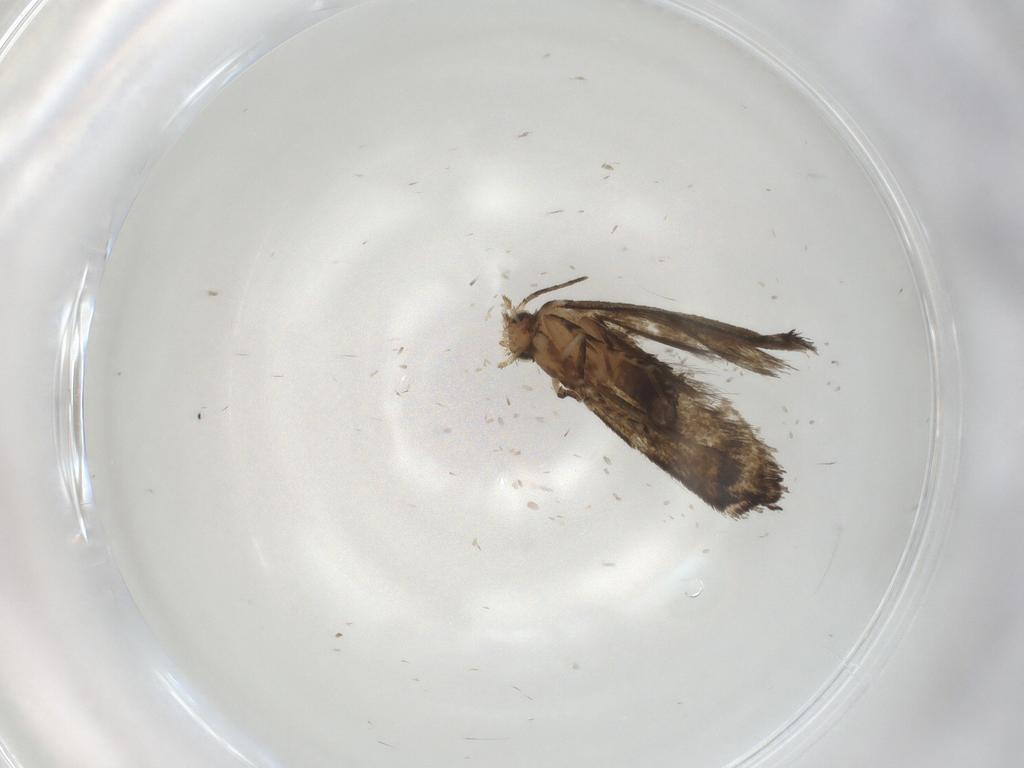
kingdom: Animalia
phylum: Arthropoda
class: Insecta
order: Lepidoptera
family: Tineidae
